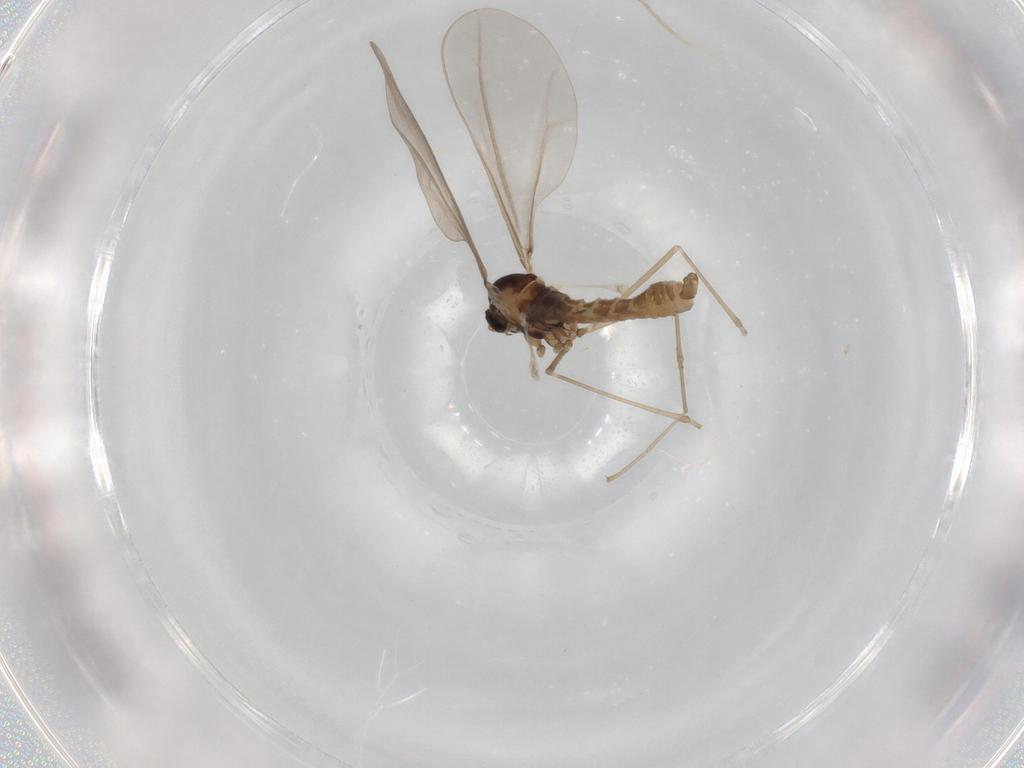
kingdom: Animalia
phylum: Arthropoda
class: Insecta
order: Diptera
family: Cecidomyiidae
